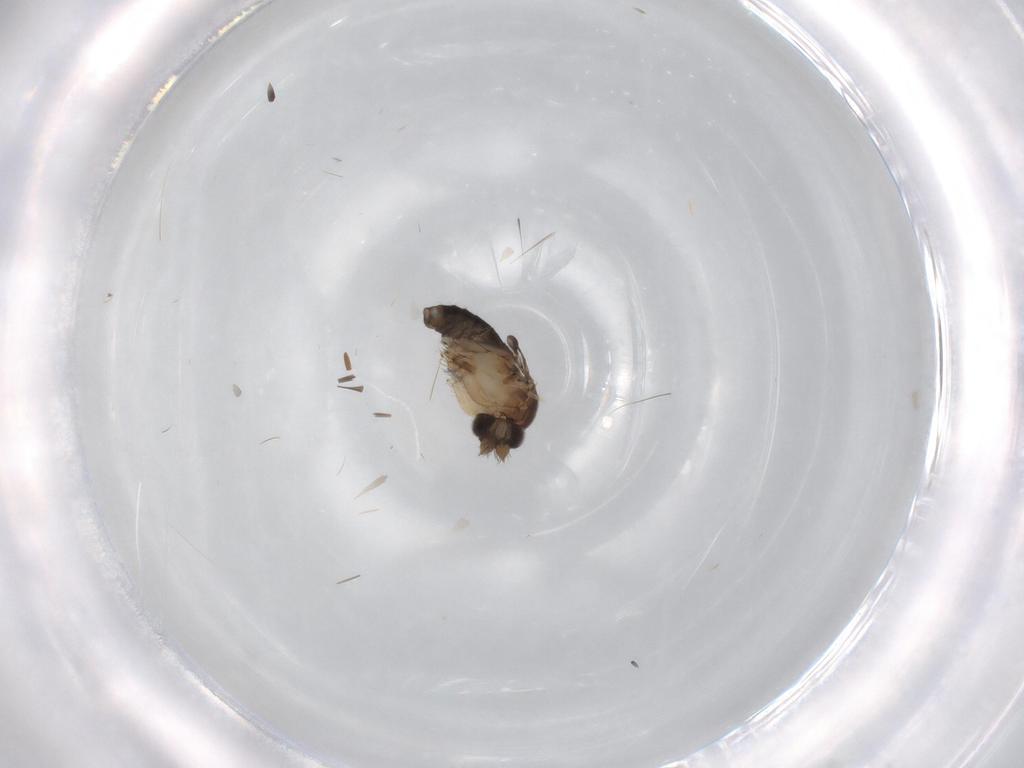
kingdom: Animalia
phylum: Arthropoda
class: Insecta
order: Diptera
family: Phoridae
